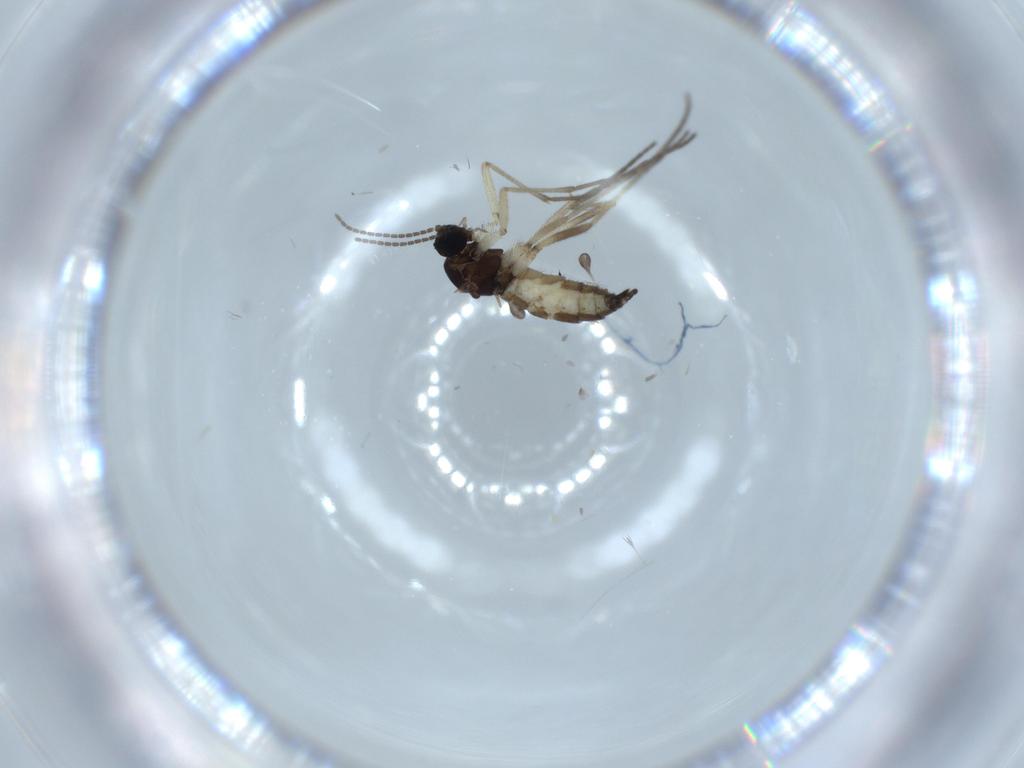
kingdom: Animalia
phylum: Arthropoda
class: Insecta
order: Diptera
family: Sciaridae
